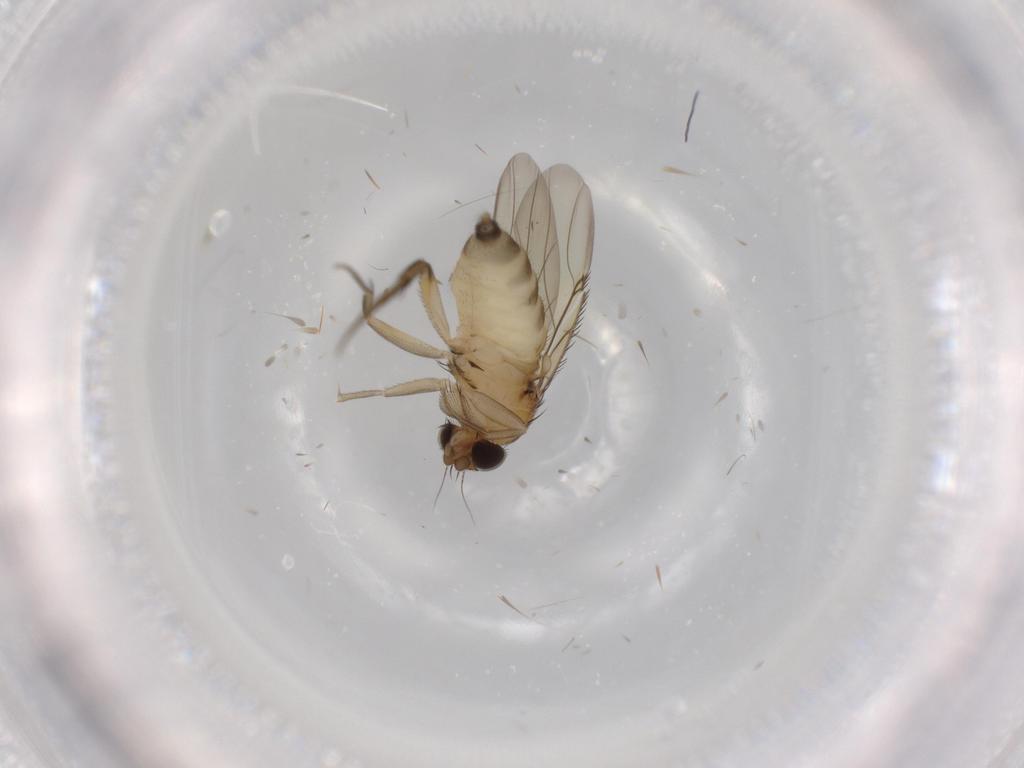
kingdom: Animalia
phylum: Arthropoda
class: Insecta
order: Diptera
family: Phoridae
